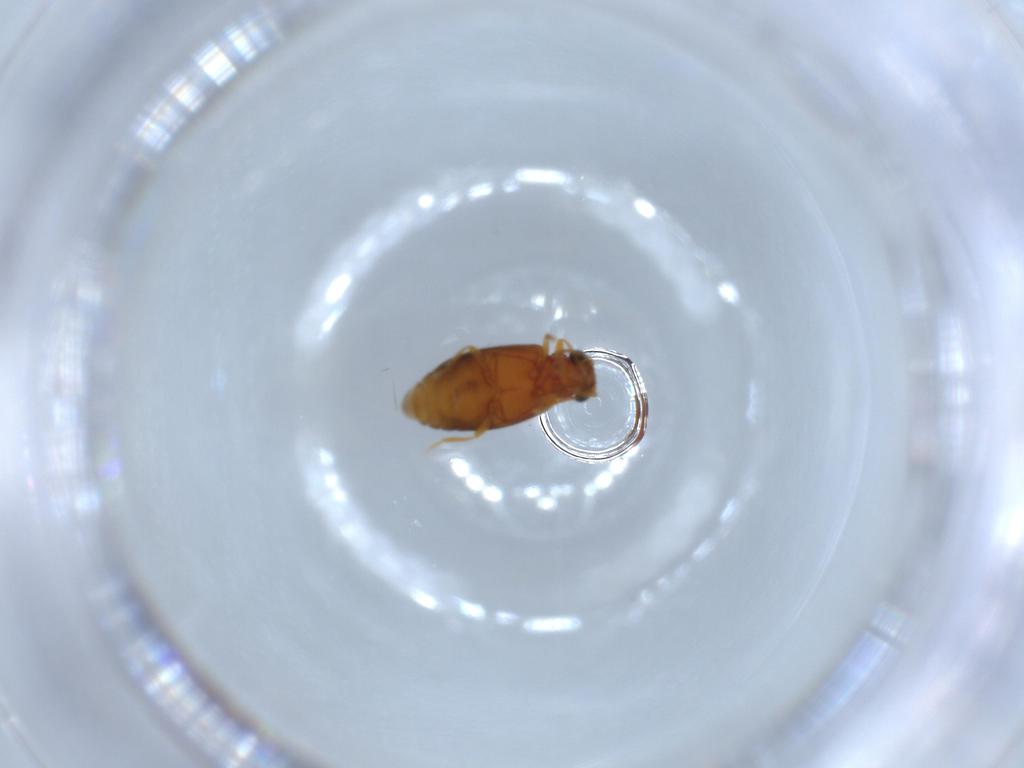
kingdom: Animalia
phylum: Arthropoda
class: Insecta
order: Coleoptera
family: Aderidae
